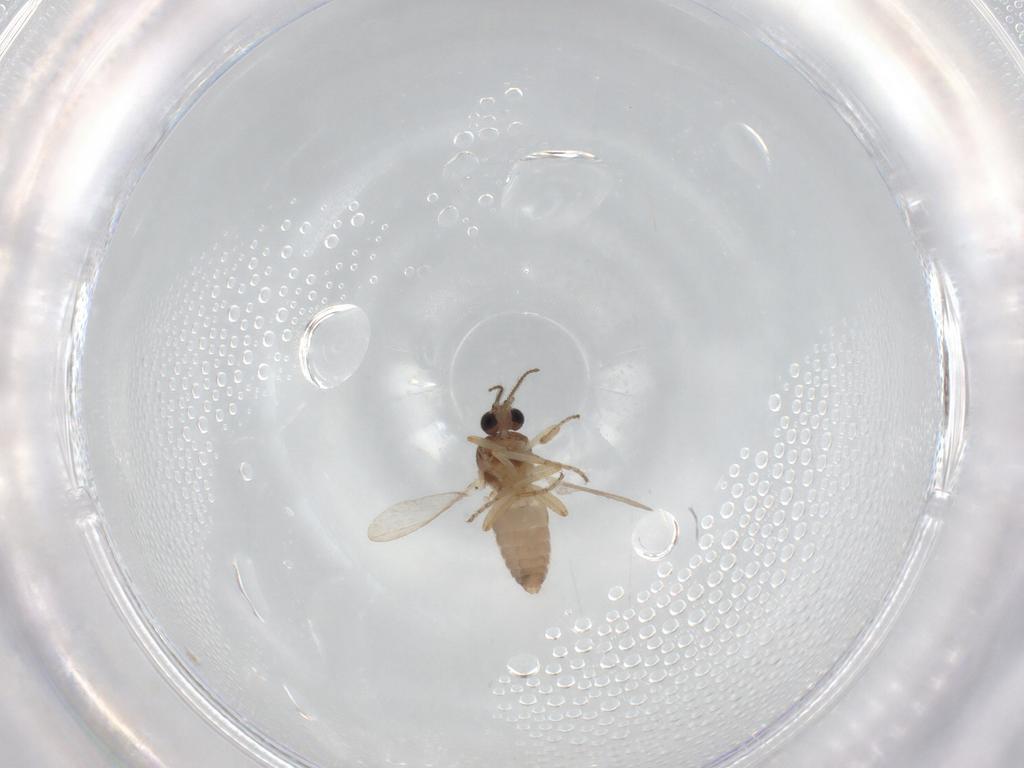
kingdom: Animalia
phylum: Arthropoda
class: Insecta
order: Diptera
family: Ceratopogonidae
